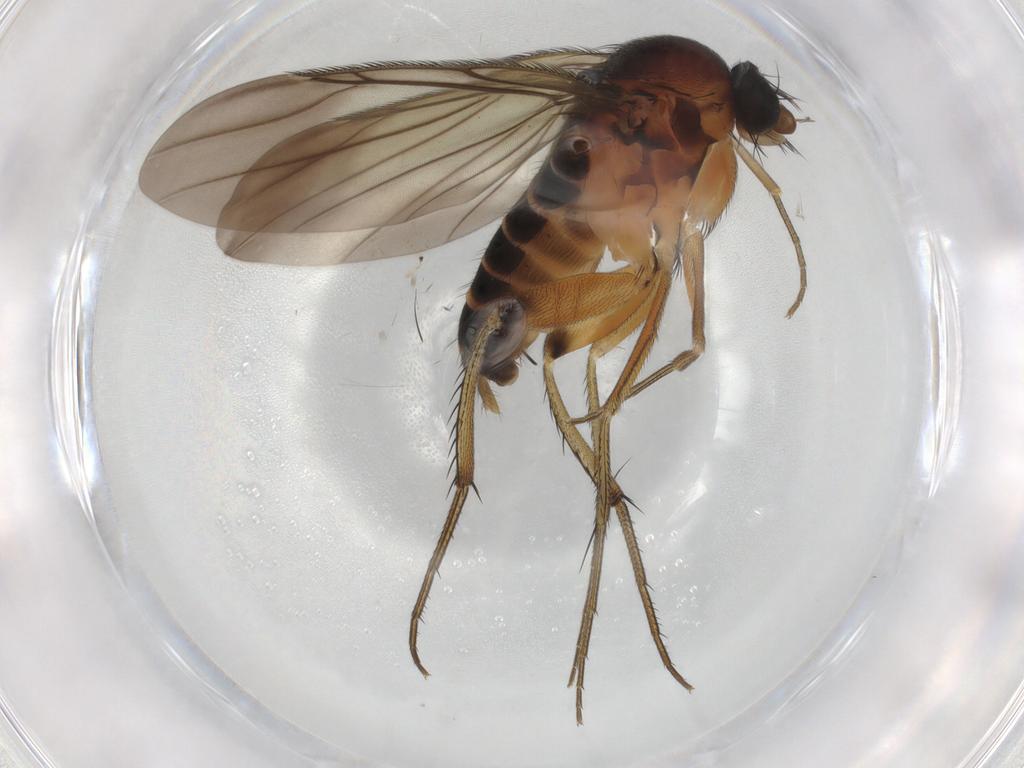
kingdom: Animalia
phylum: Arthropoda
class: Insecta
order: Diptera
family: Phoridae
